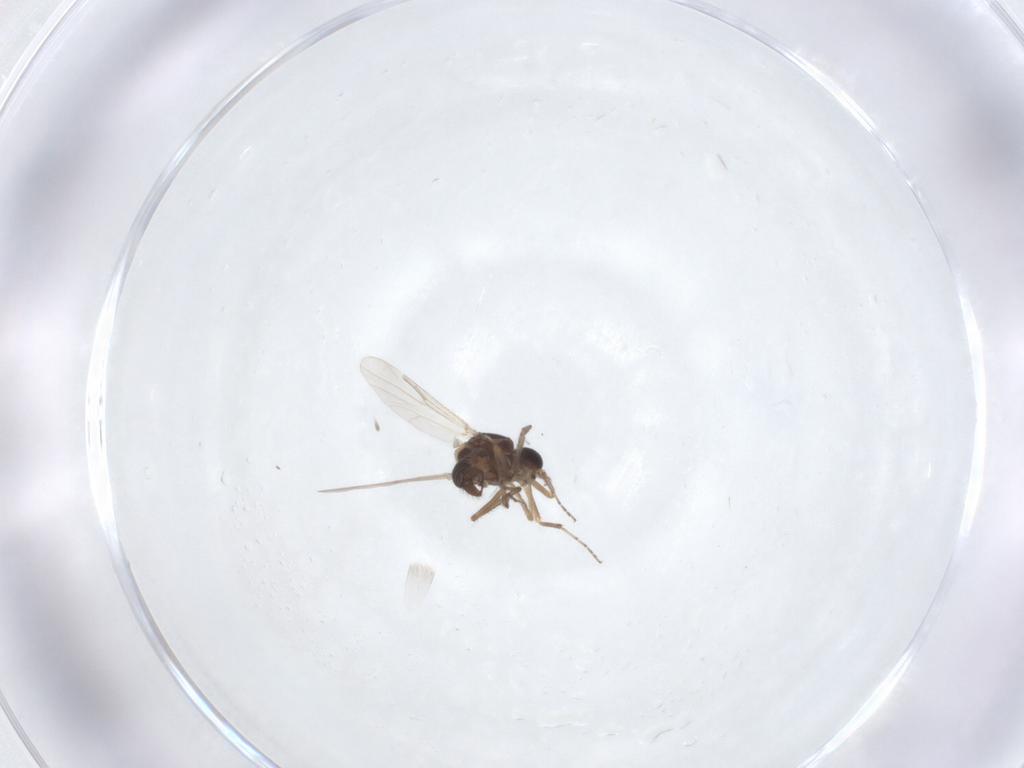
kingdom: Animalia
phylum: Arthropoda
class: Insecta
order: Diptera
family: Ceratopogonidae
